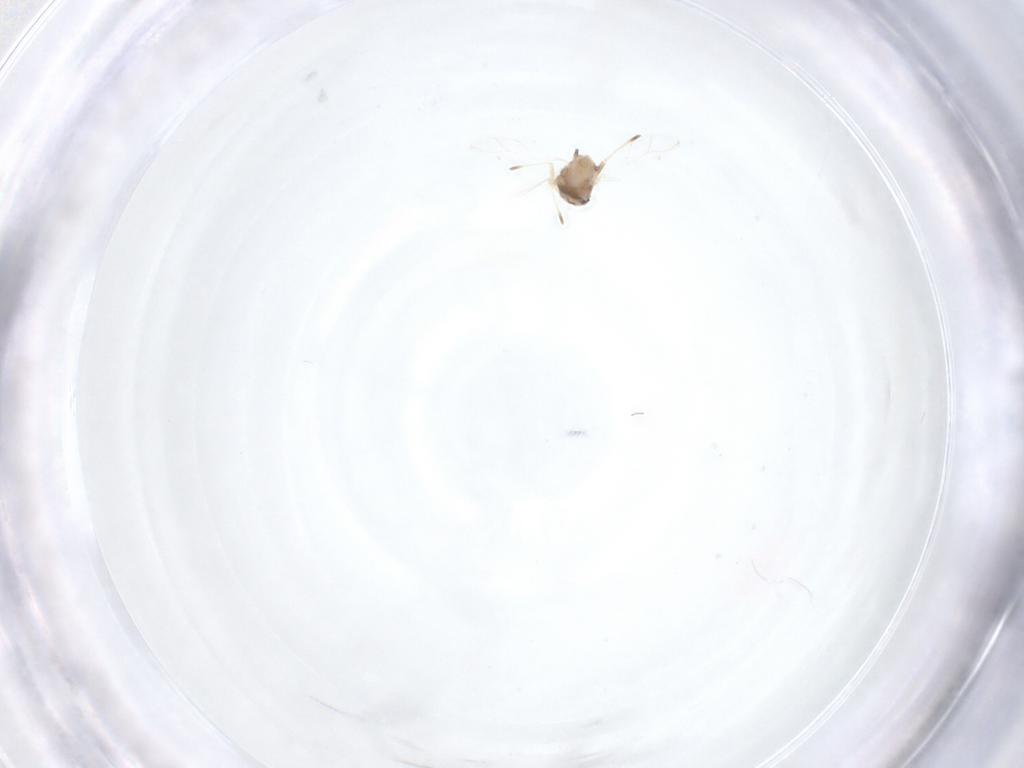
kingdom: Animalia
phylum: Arthropoda
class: Insecta
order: Hemiptera
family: Aphididae
